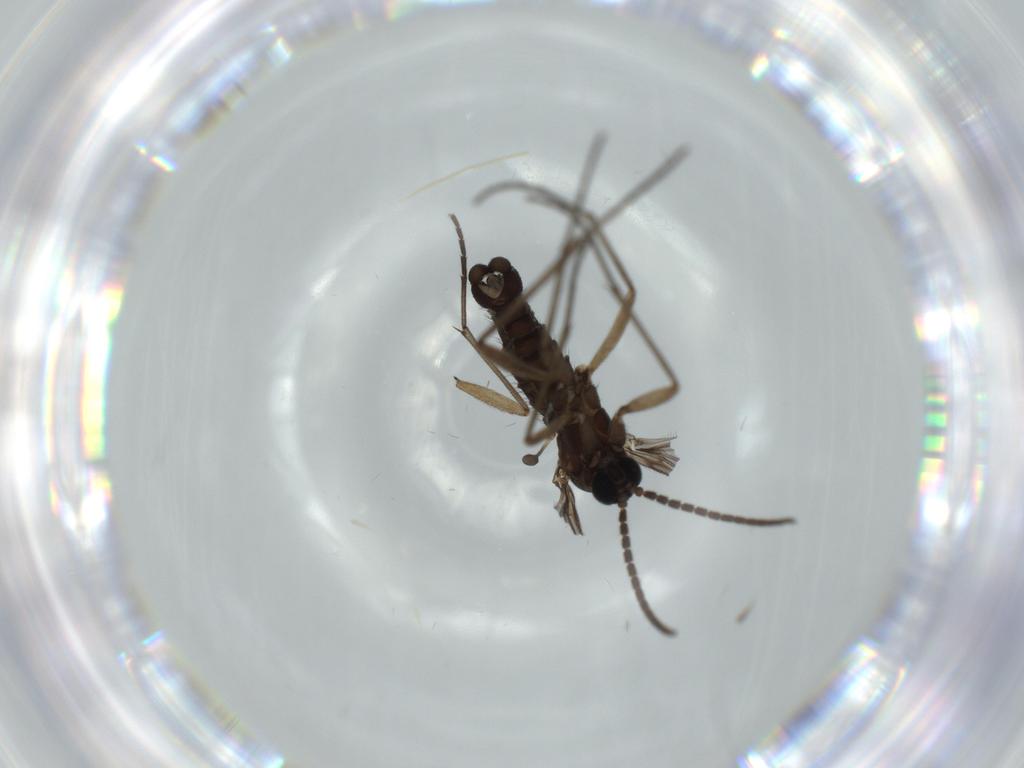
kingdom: Animalia
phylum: Arthropoda
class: Insecta
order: Diptera
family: Sciaridae
